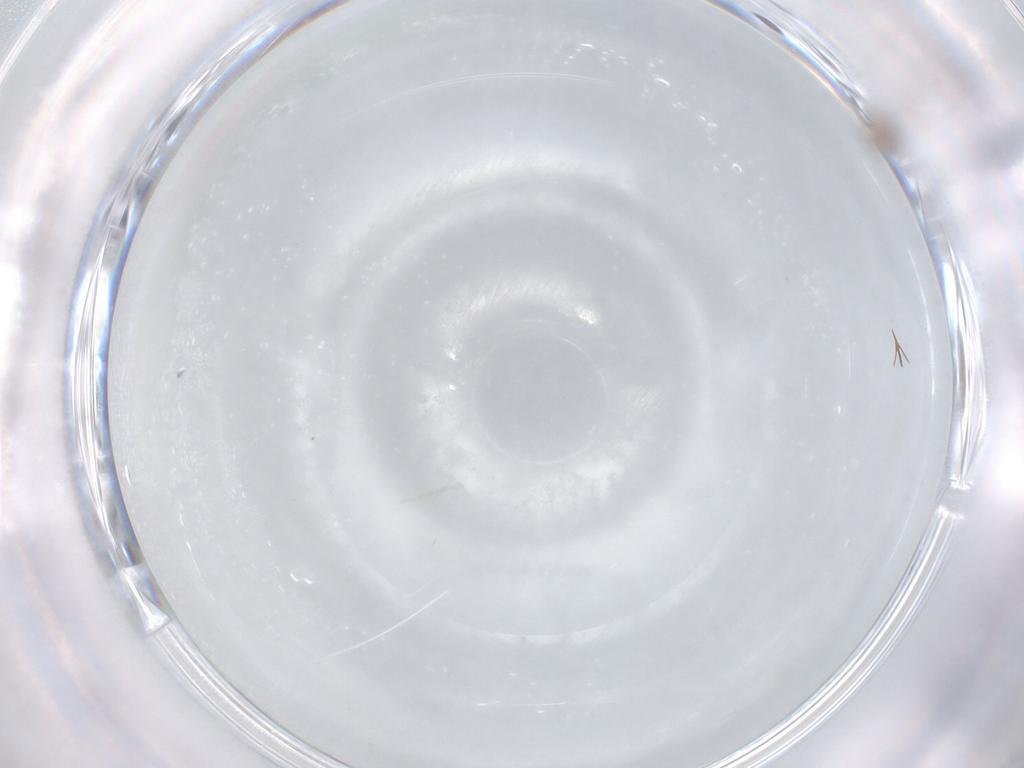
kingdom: Animalia
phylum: Arthropoda
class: Insecta
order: Diptera
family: Chironomidae
